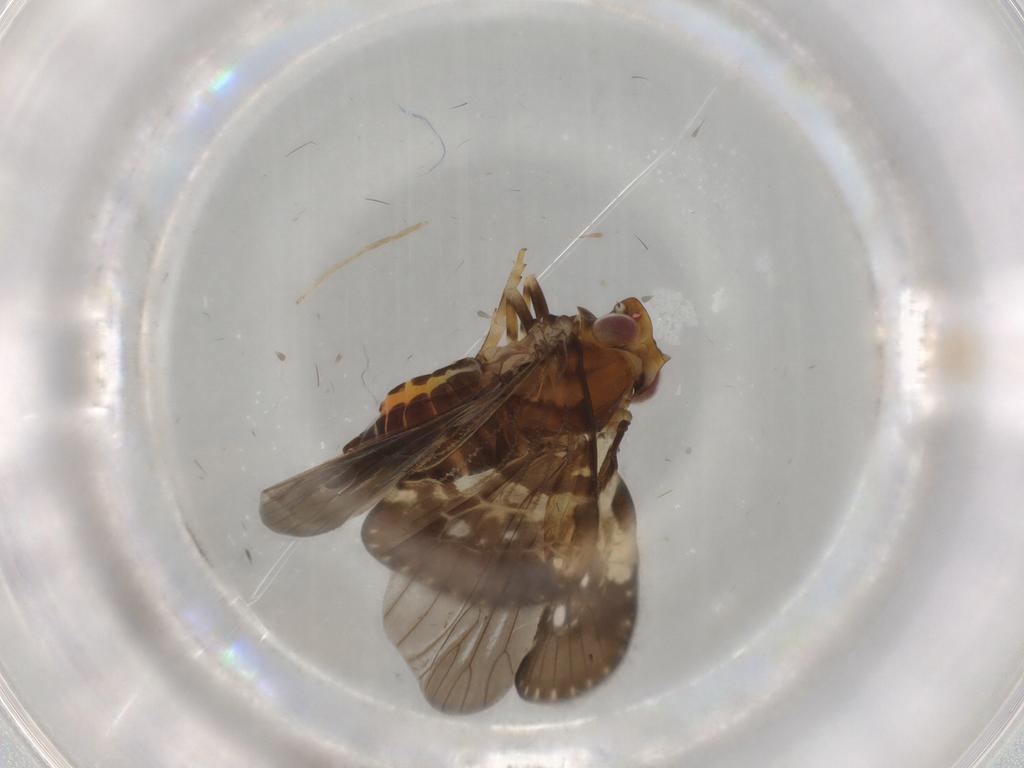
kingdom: Animalia
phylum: Arthropoda
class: Insecta
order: Hemiptera
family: Cixiidae
